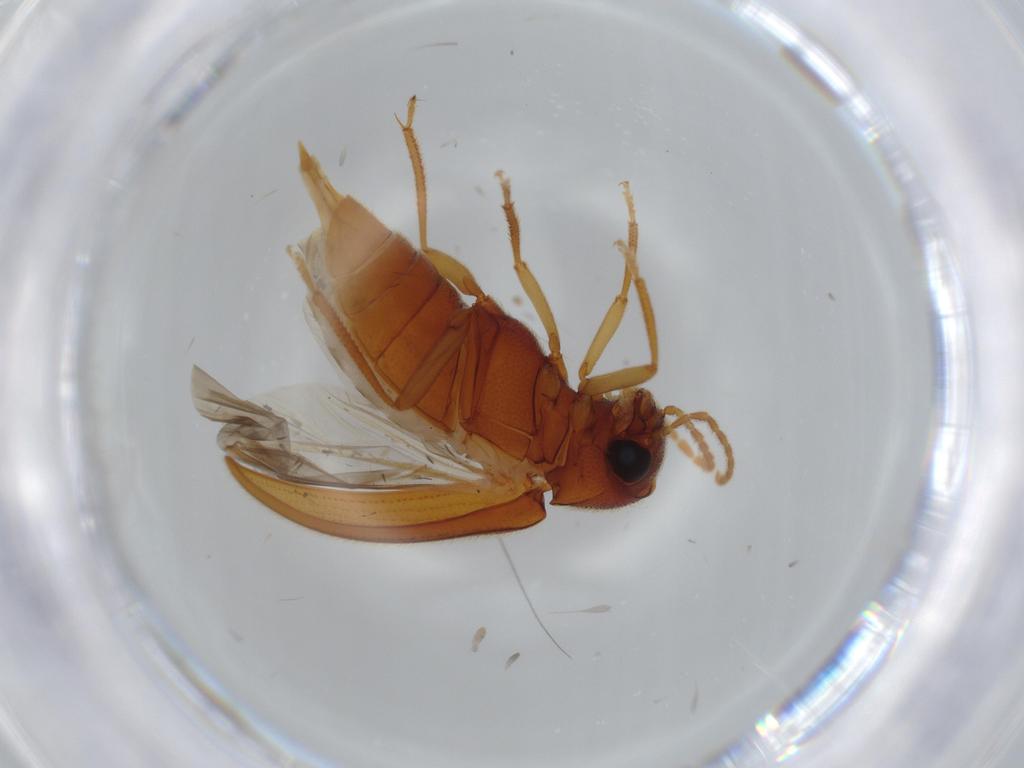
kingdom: Animalia
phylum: Arthropoda
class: Insecta
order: Coleoptera
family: Ptilodactylidae
